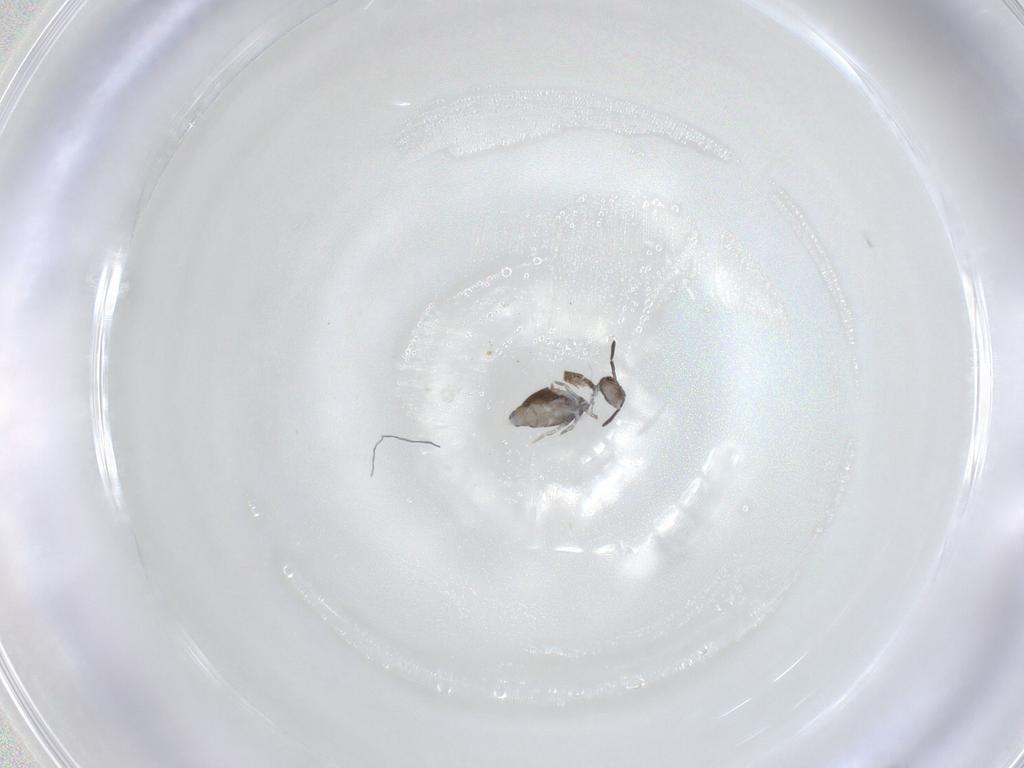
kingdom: Animalia
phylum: Arthropoda
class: Collembola
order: Symphypleona
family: Katiannidae
